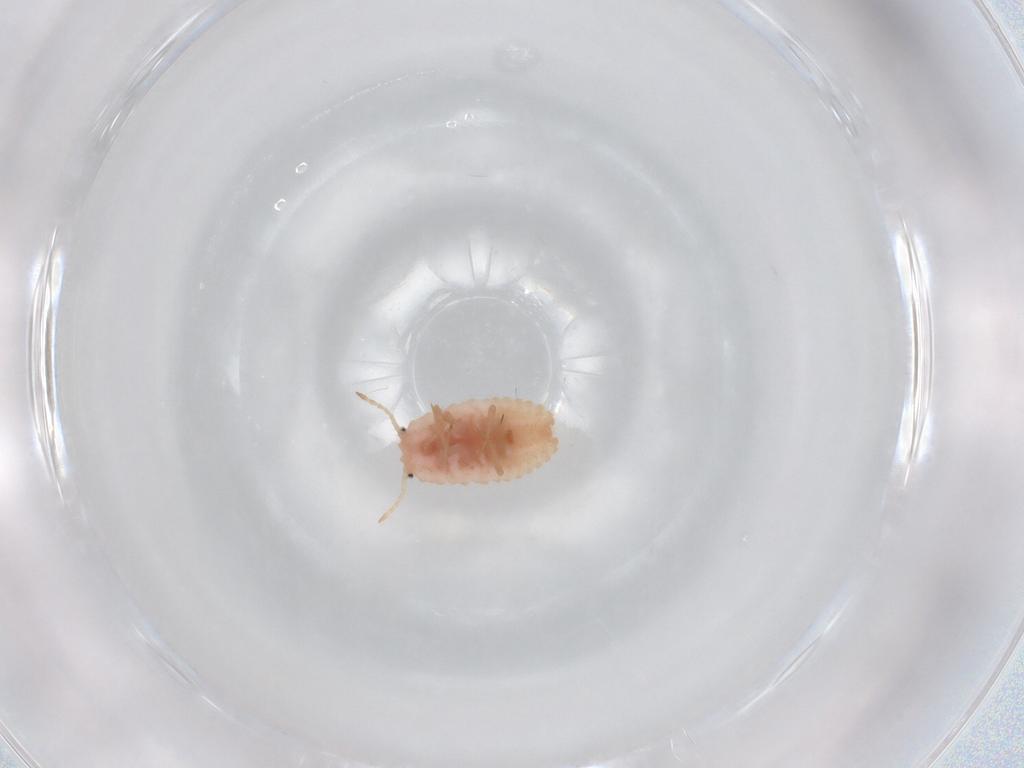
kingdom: Animalia
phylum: Arthropoda
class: Insecta
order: Hemiptera
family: Coccoidea_incertae_sedis
